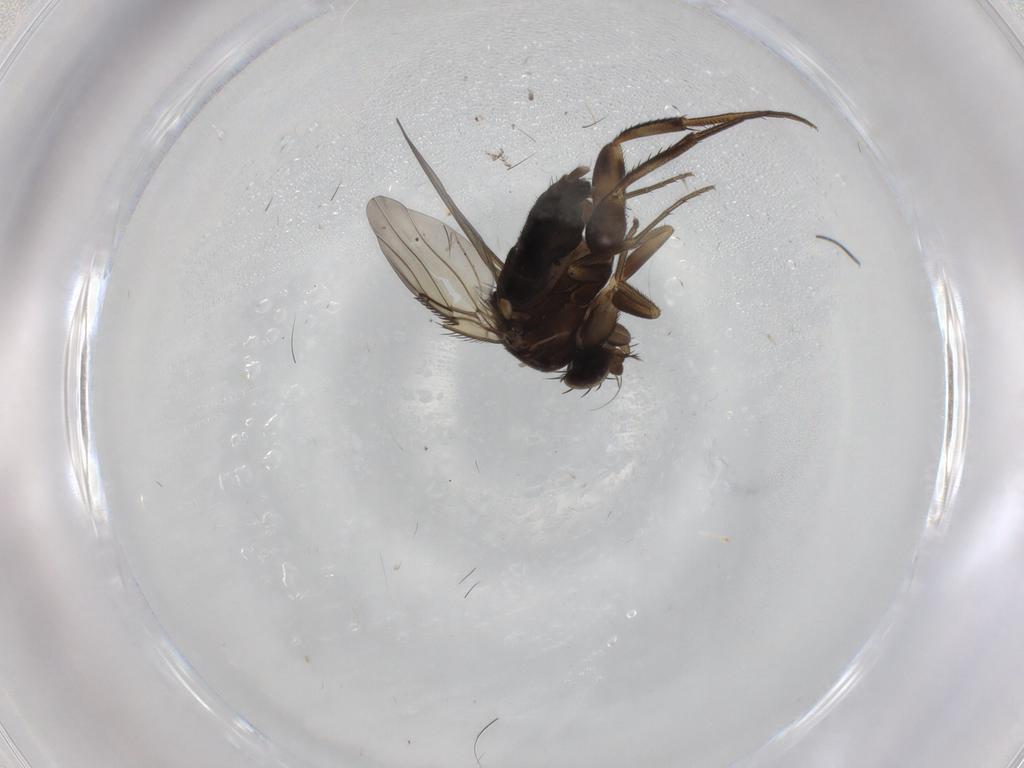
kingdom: Animalia
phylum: Arthropoda
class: Insecta
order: Diptera
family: Phoridae
